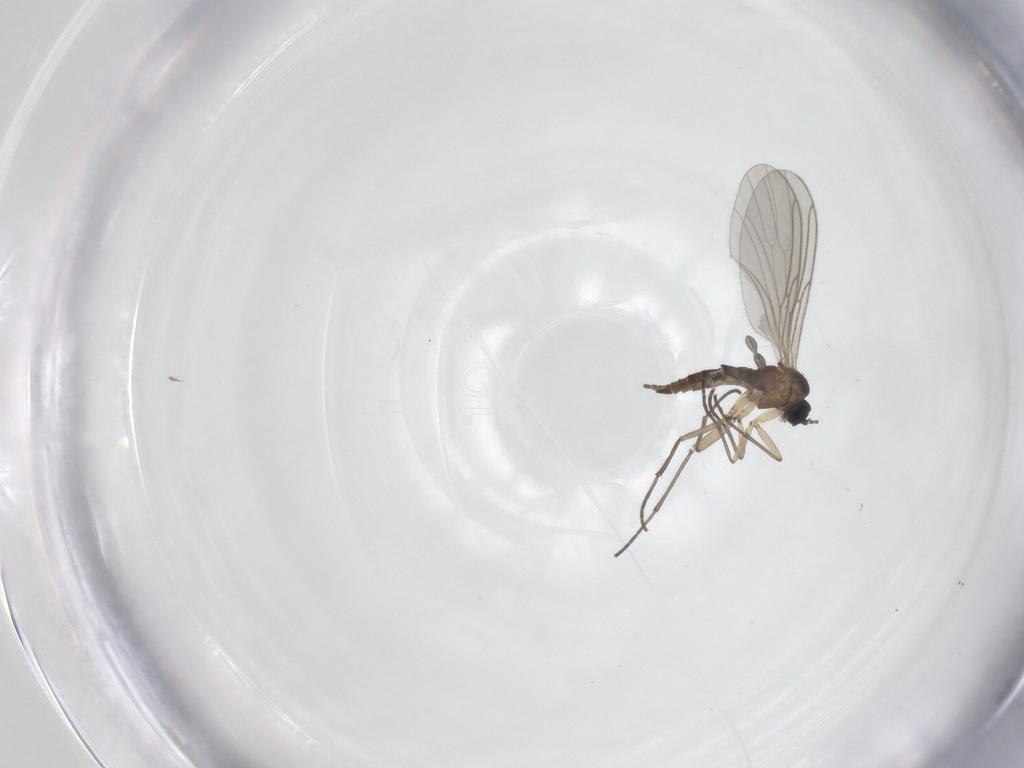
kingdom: Animalia
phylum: Arthropoda
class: Insecta
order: Diptera
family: Sciaridae
